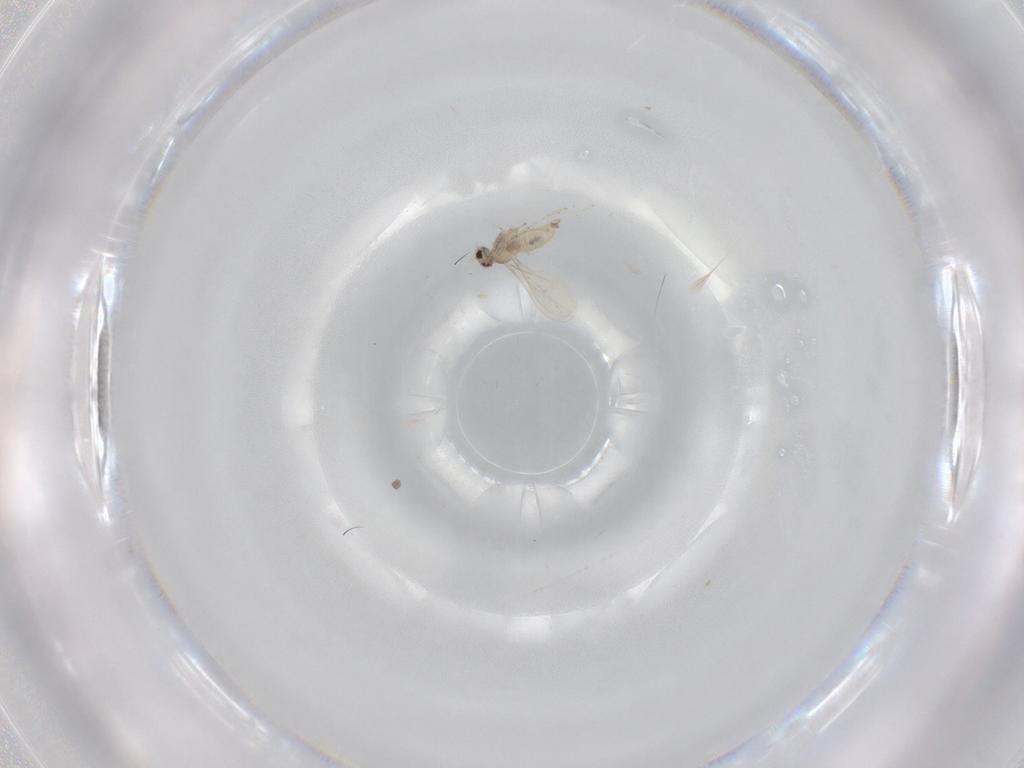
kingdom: Animalia
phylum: Arthropoda
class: Insecta
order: Diptera
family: Cecidomyiidae
